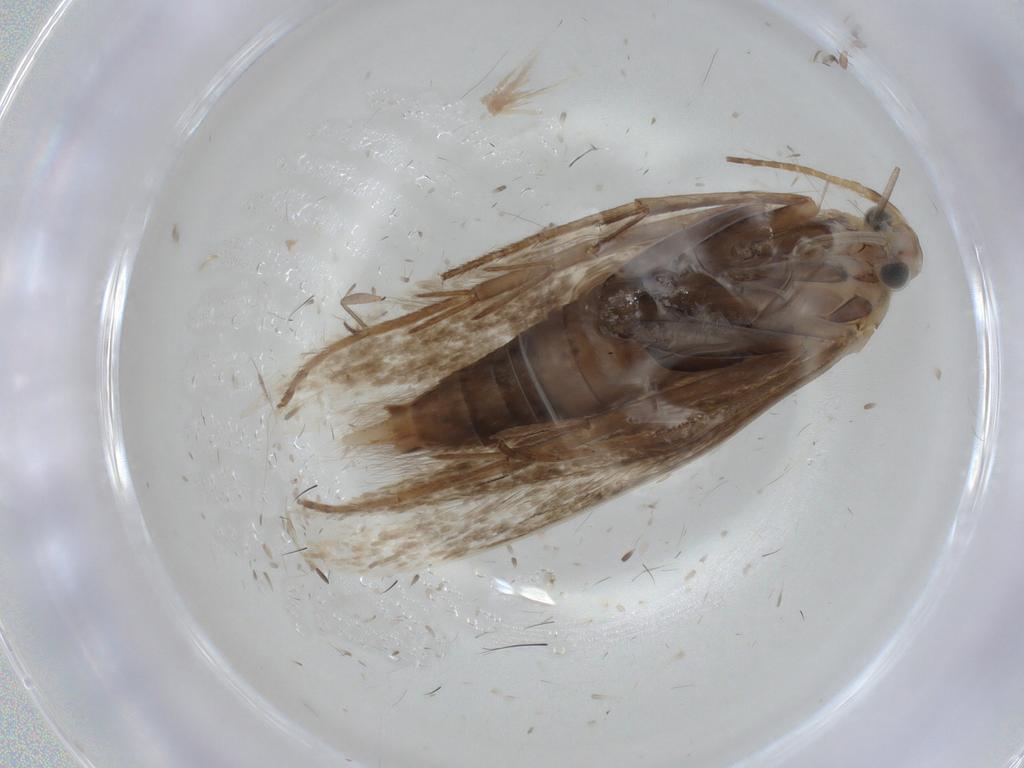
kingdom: Animalia
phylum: Arthropoda
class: Insecta
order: Lepidoptera
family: Coleophoridae
